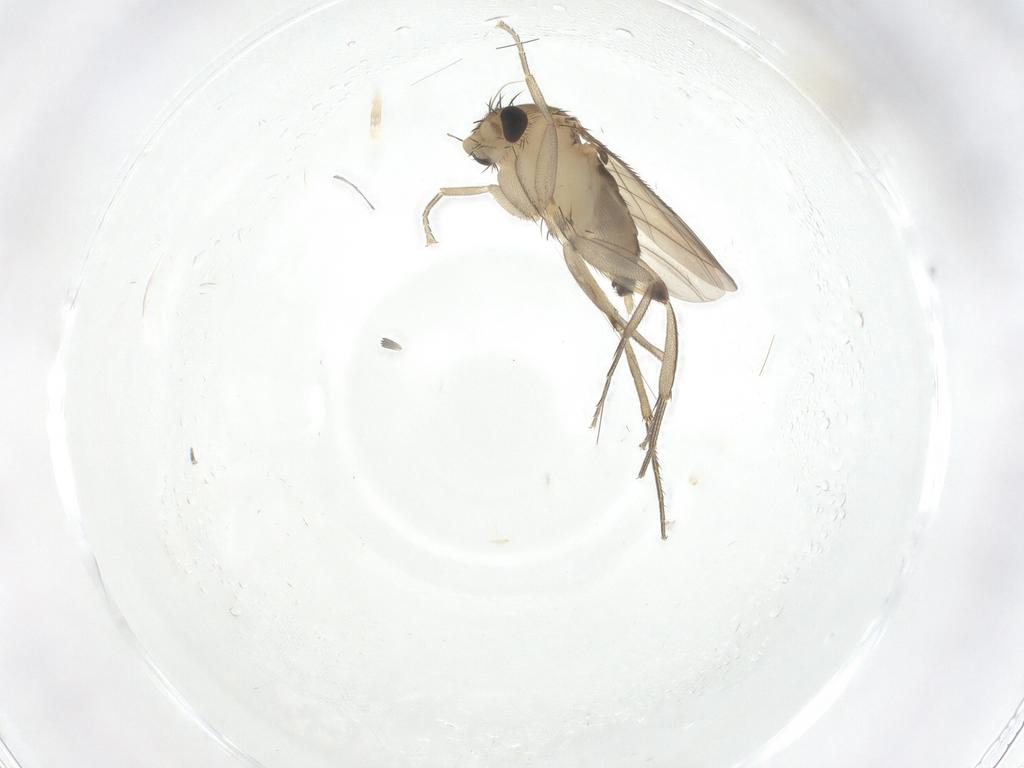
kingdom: Animalia
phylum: Arthropoda
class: Insecta
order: Diptera
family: Chloropidae
